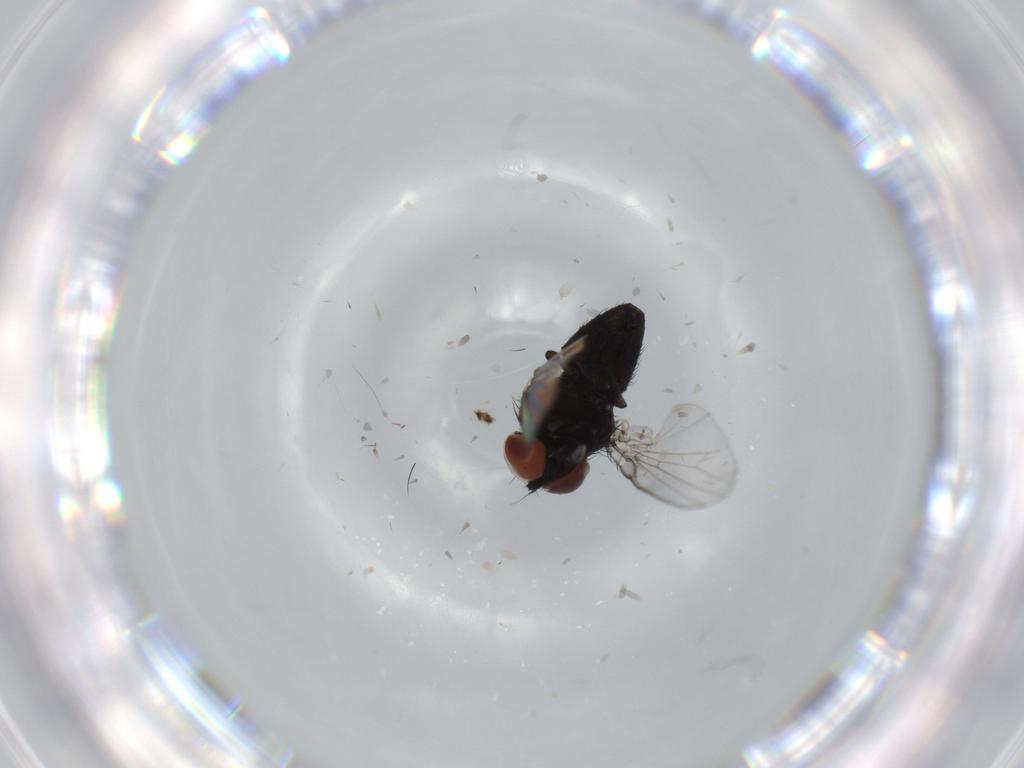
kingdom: Animalia
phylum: Arthropoda
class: Insecta
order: Diptera
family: Milichiidae
